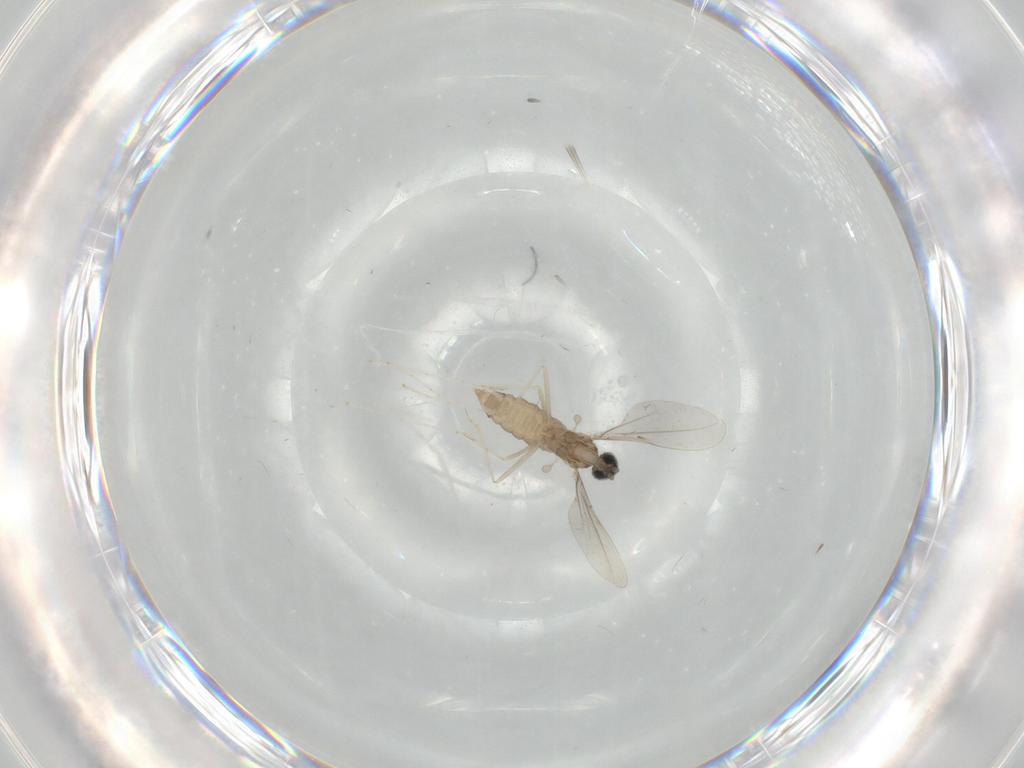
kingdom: Animalia
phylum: Arthropoda
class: Insecta
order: Diptera
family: Cecidomyiidae
